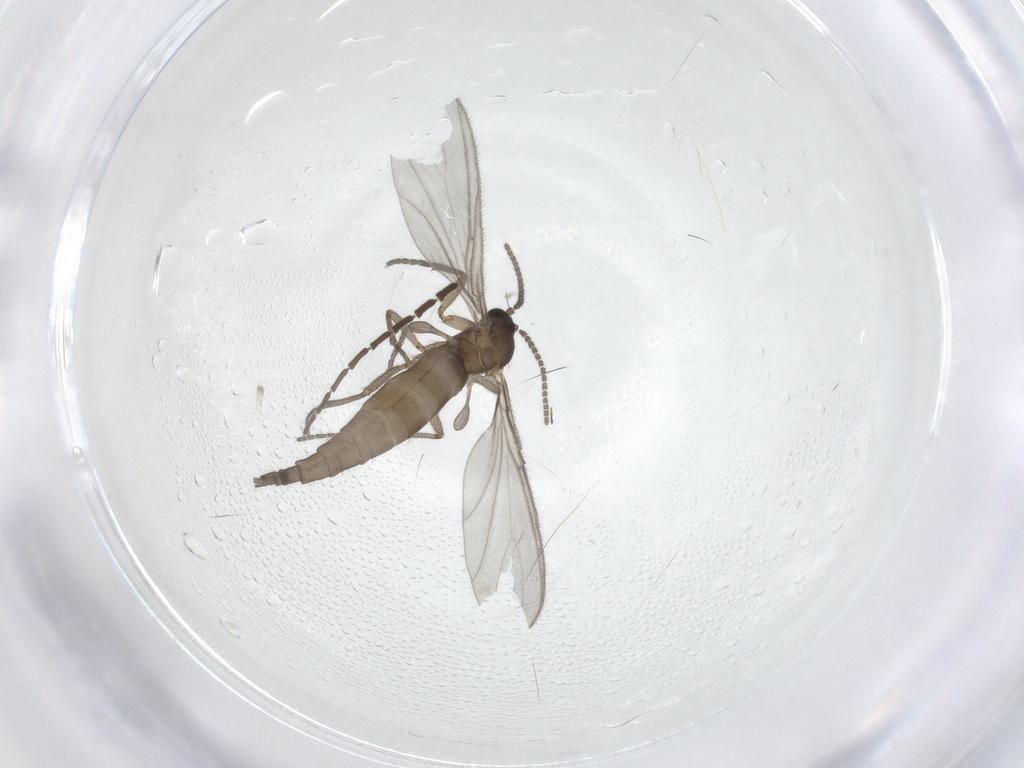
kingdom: Animalia
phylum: Arthropoda
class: Insecta
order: Diptera
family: Sciaridae
